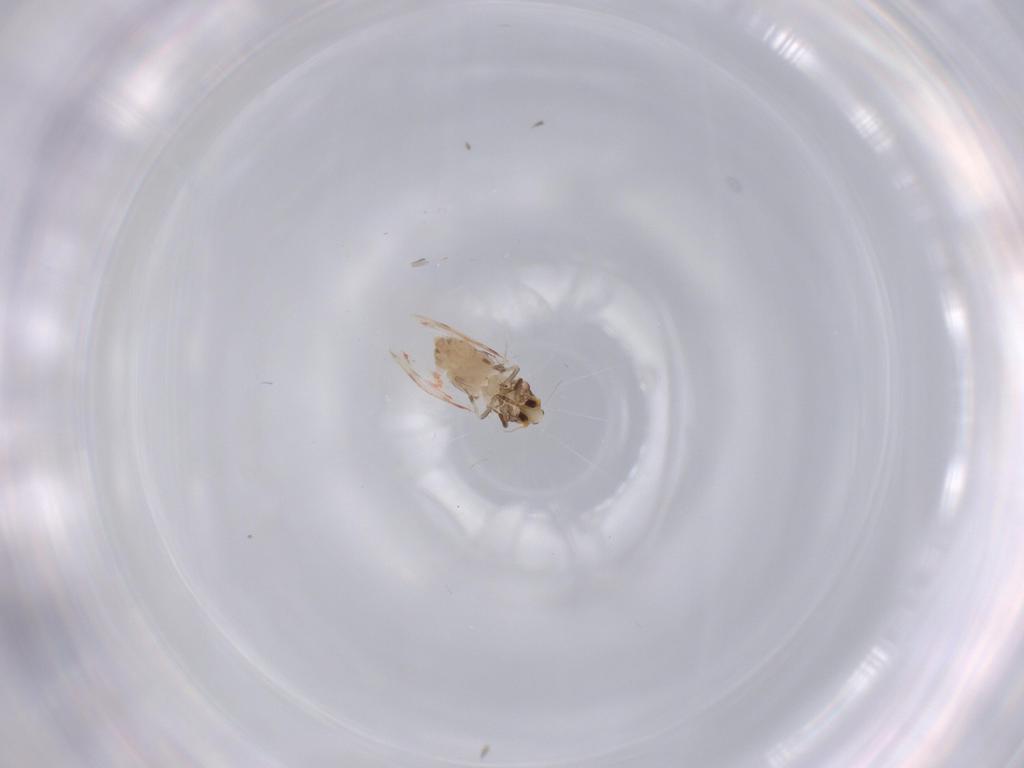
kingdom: Animalia
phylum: Arthropoda
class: Insecta
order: Hemiptera
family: Aleyrodidae
